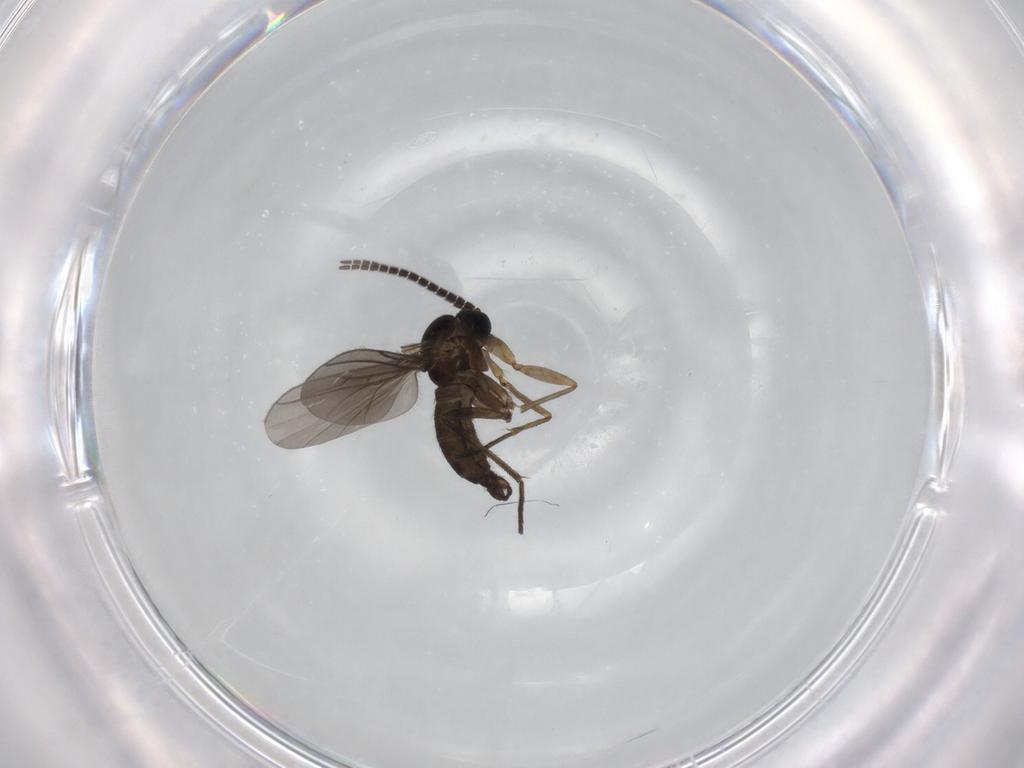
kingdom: Animalia
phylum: Arthropoda
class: Insecta
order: Diptera
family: Sciaridae
